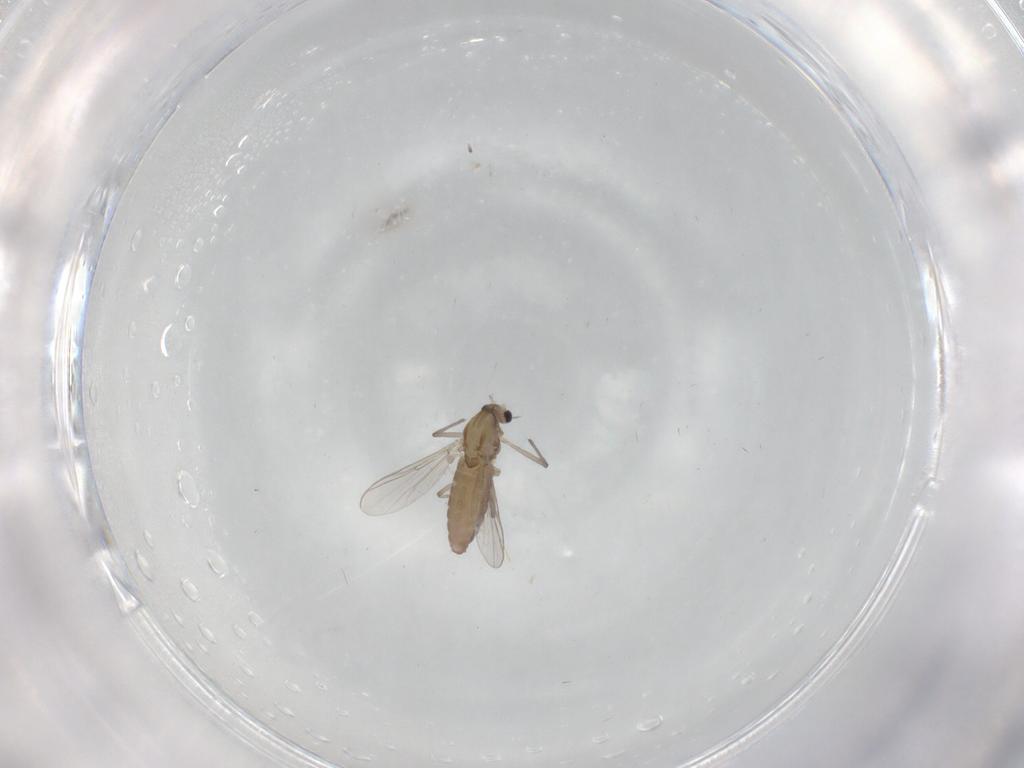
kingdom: Animalia
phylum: Arthropoda
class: Insecta
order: Diptera
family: Chironomidae
